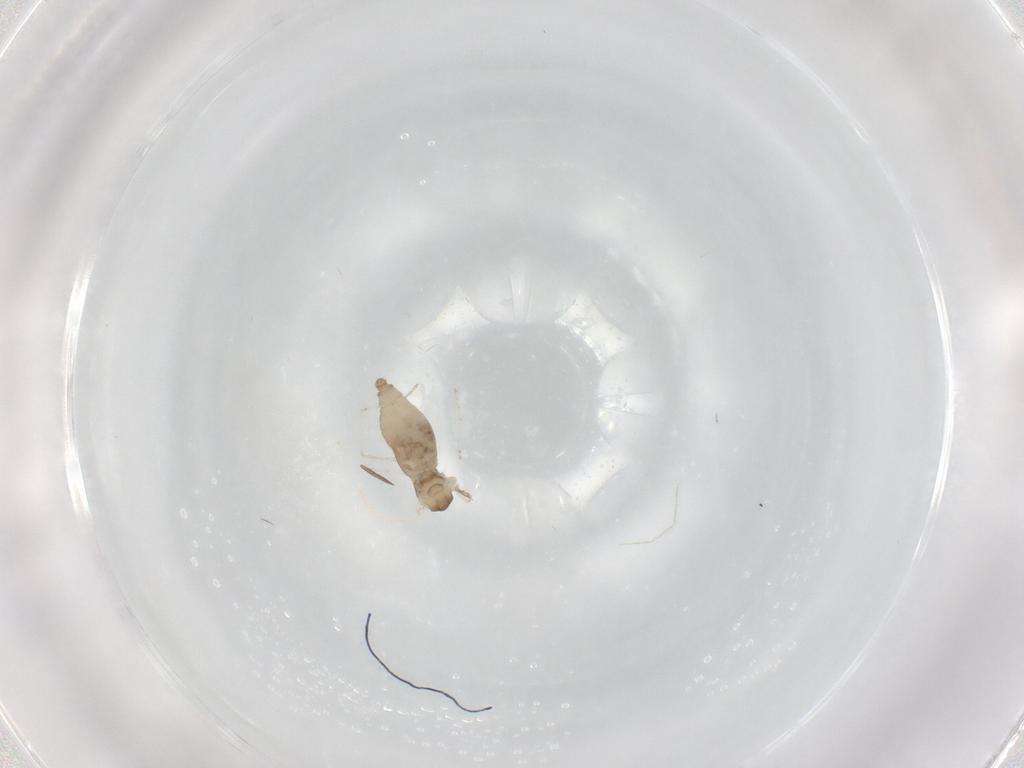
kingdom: Animalia
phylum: Arthropoda
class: Insecta
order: Diptera
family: Cecidomyiidae
